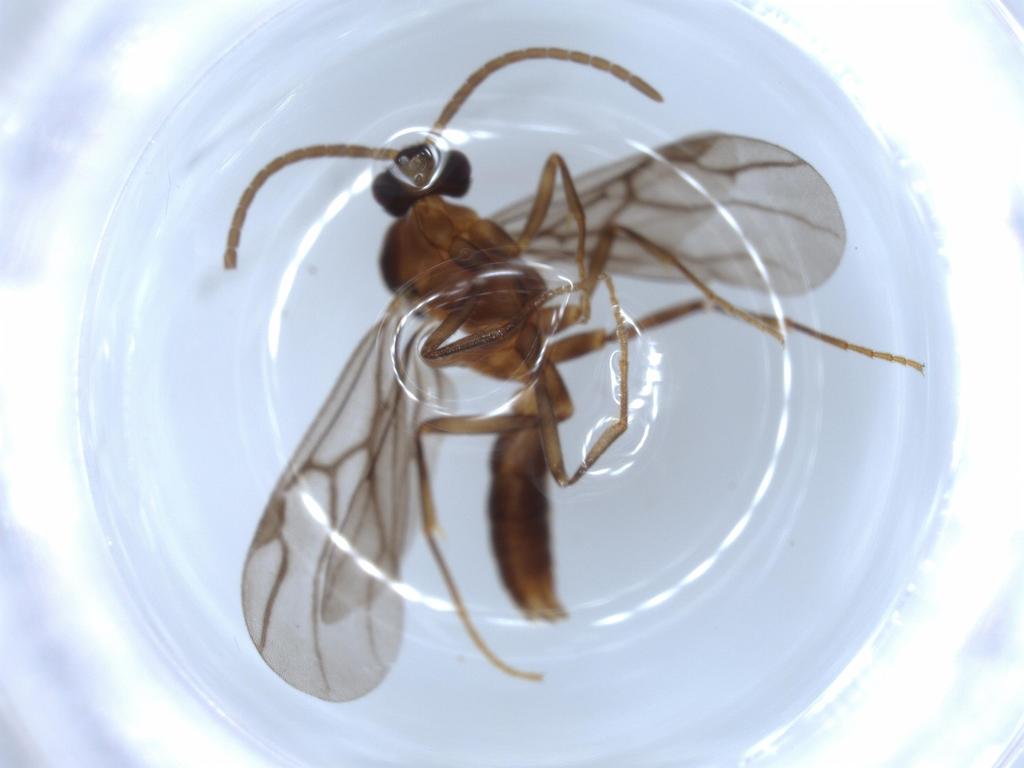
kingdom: Animalia
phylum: Arthropoda
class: Insecta
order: Hymenoptera
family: Formicidae
